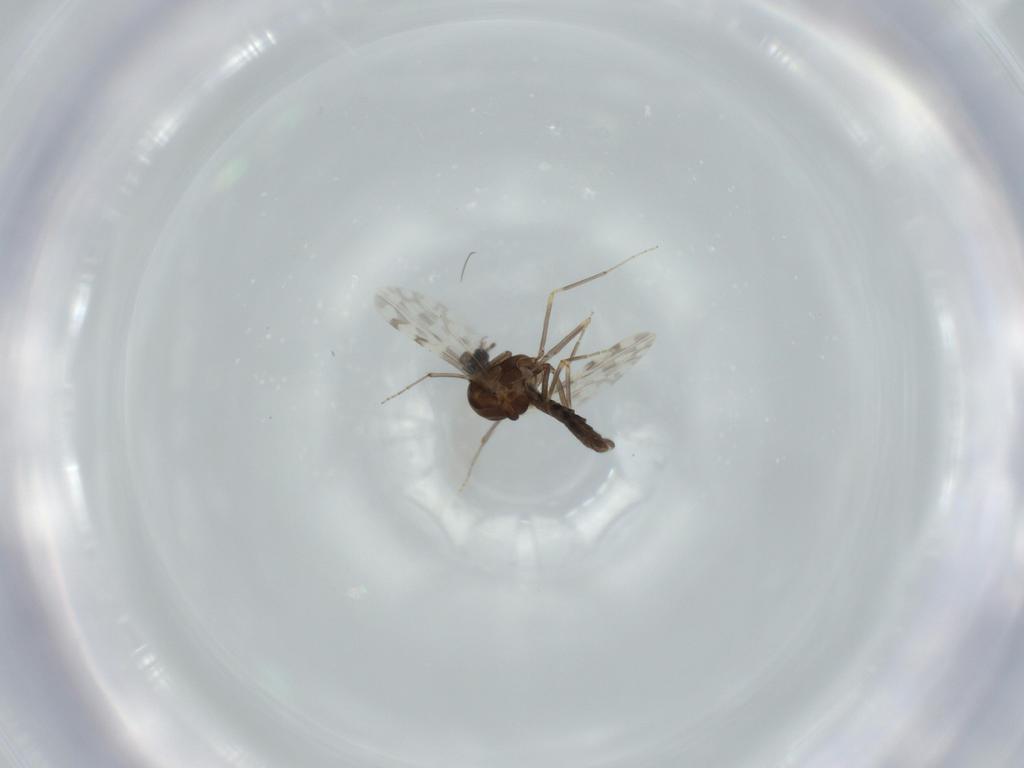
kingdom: Animalia
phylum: Arthropoda
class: Insecta
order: Diptera
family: Ceratopogonidae
